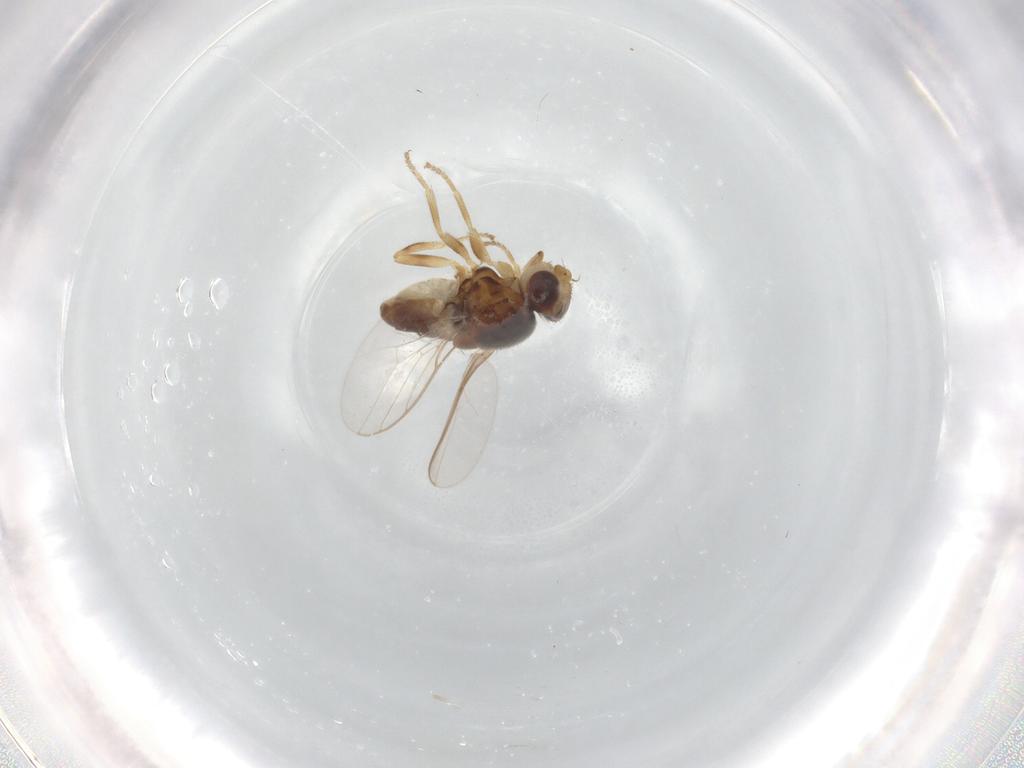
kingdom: Animalia
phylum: Arthropoda
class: Insecta
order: Diptera
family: Chloropidae
